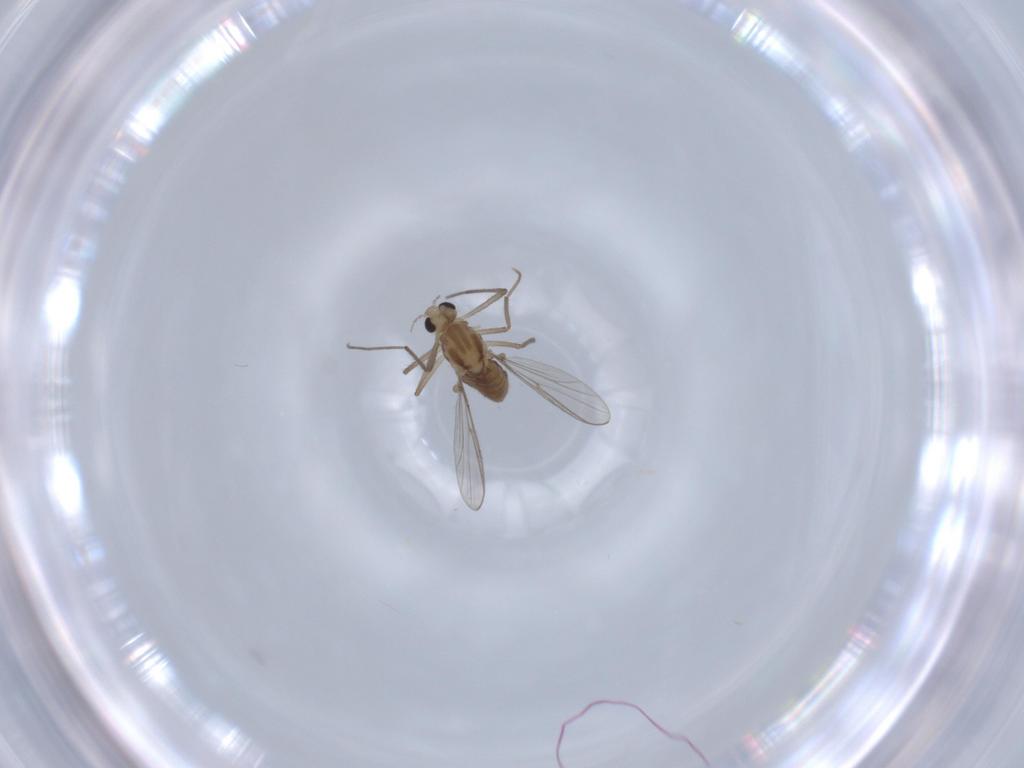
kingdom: Animalia
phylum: Arthropoda
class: Insecta
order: Diptera
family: Chironomidae
